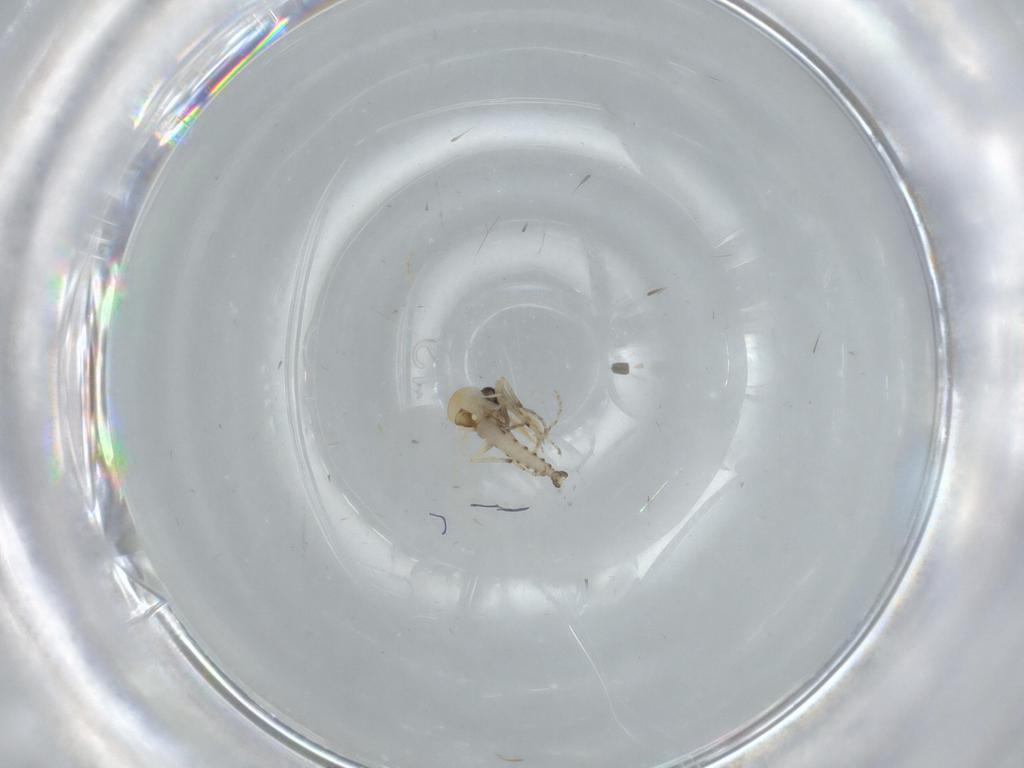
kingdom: Animalia
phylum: Arthropoda
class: Insecta
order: Diptera
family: Ceratopogonidae
